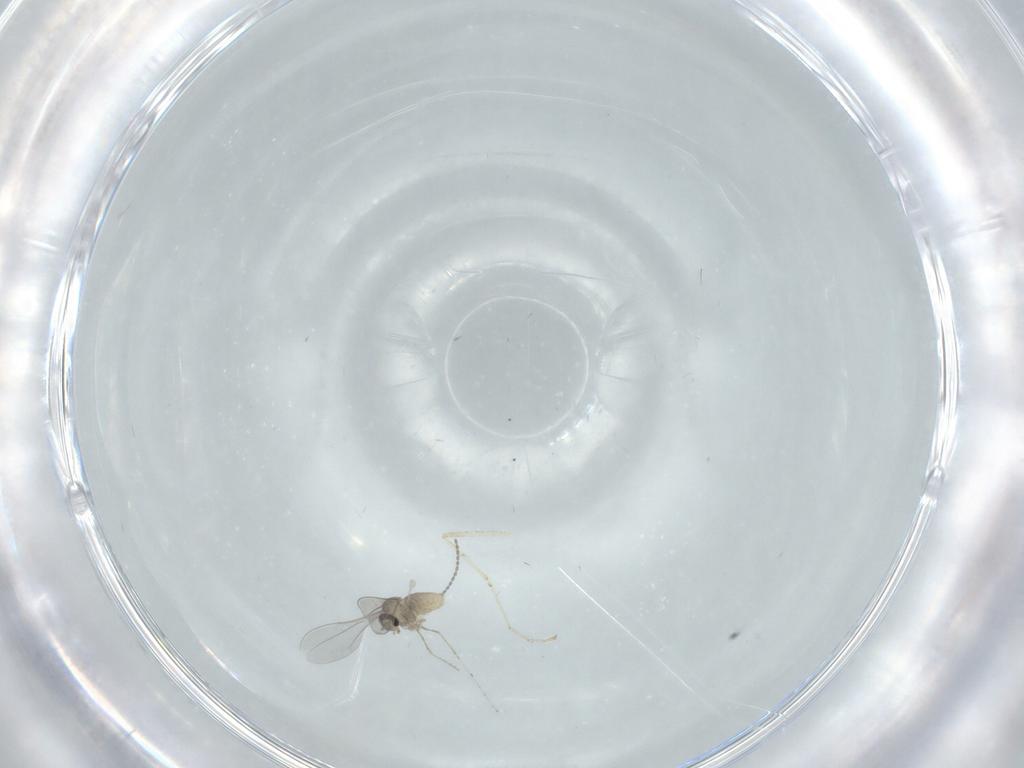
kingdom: Animalia
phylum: Arthropoda
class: Insecta
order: Diptera
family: Cecidomyiidae
